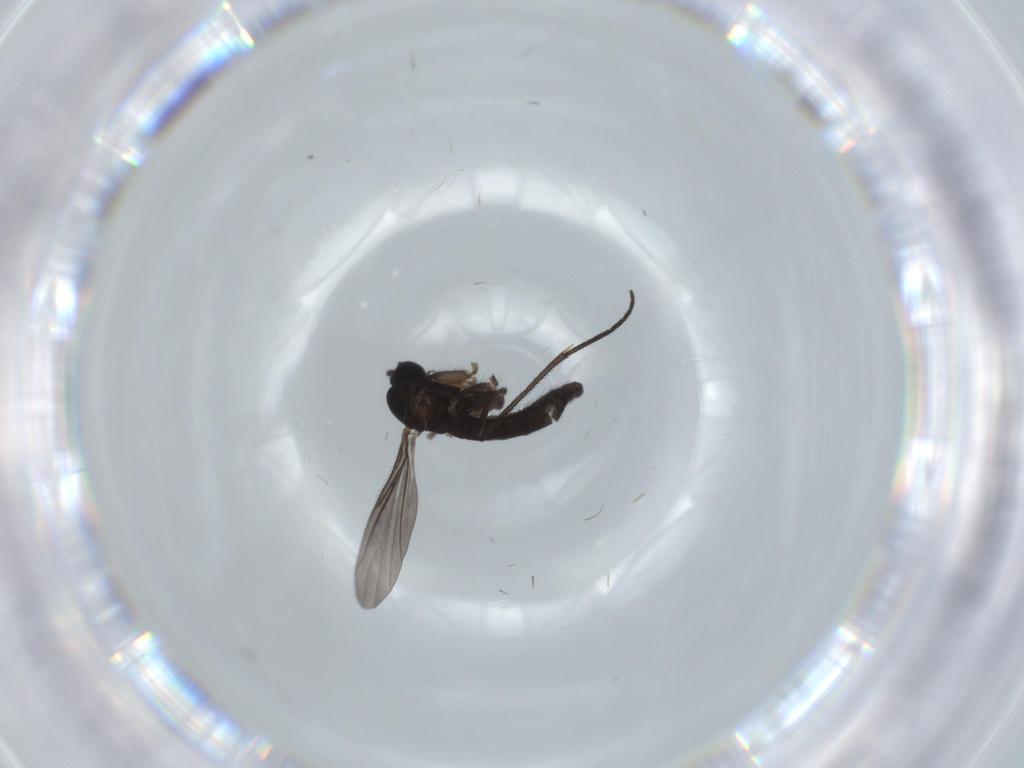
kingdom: Animalia
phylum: Arthropoda
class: Insecta
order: Diptera
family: Sciaridae
